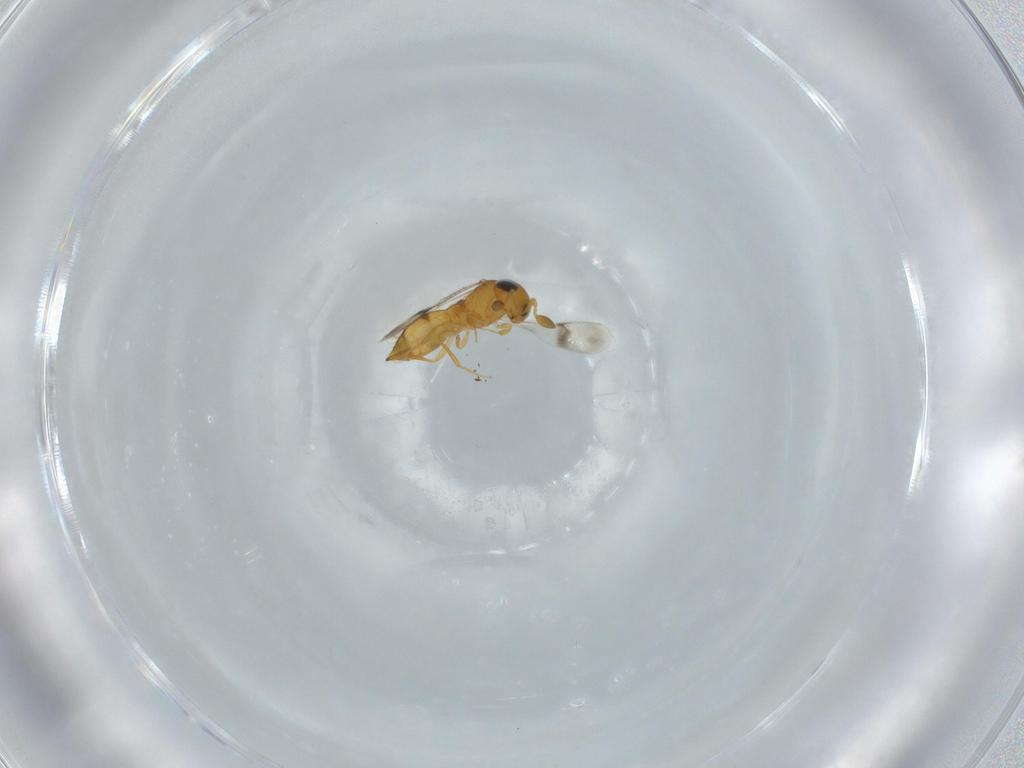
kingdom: Animalia
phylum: Arthropoda
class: Insecta
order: Hymenoptera
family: Scelionidae
